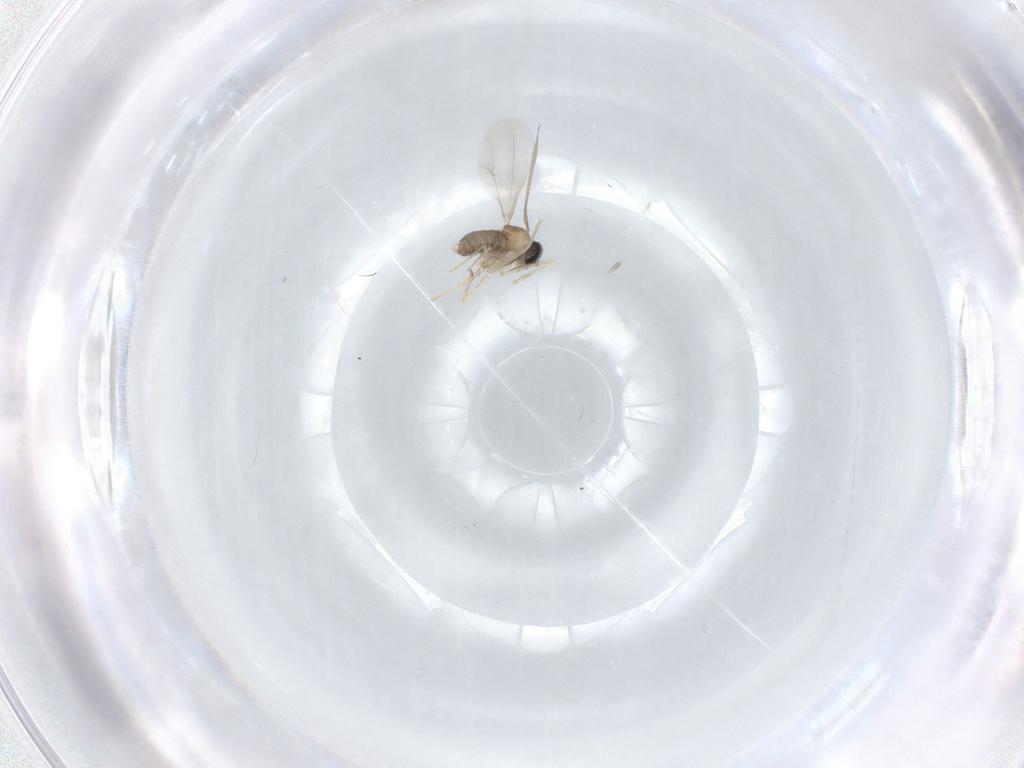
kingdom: Animalia
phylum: Arthropoda
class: Insecta
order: Diptera
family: Cecidomyiidae
